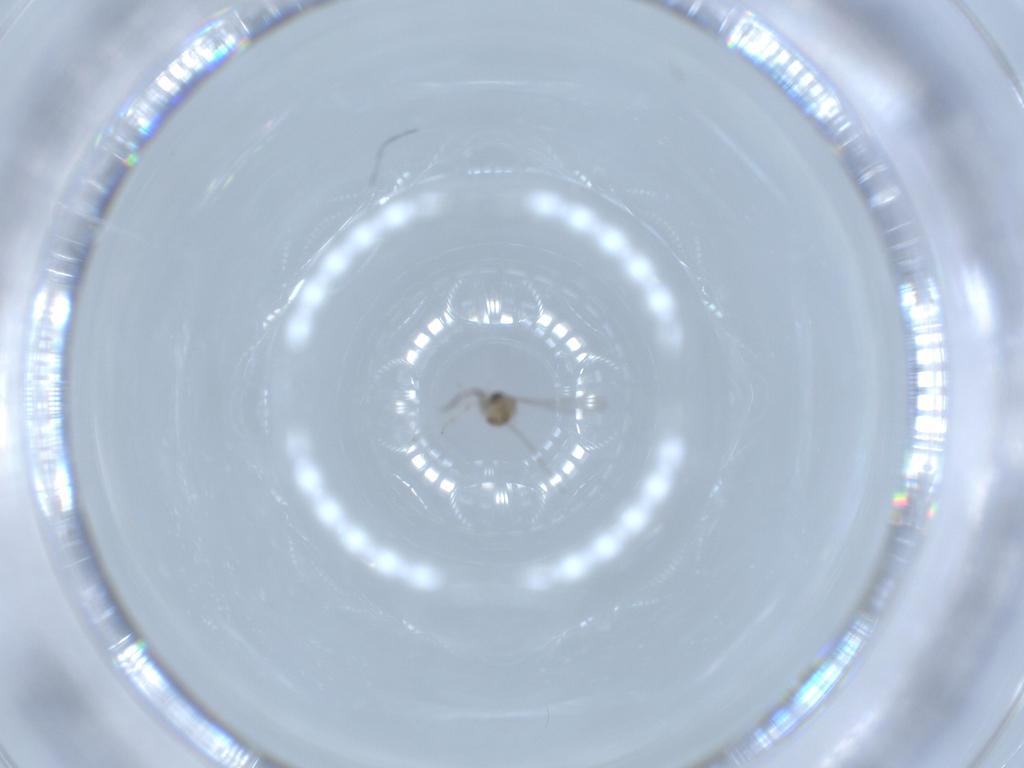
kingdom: Animalia
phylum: Arthropoda
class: Insecta
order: Diptera
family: Cecidomyiidae
